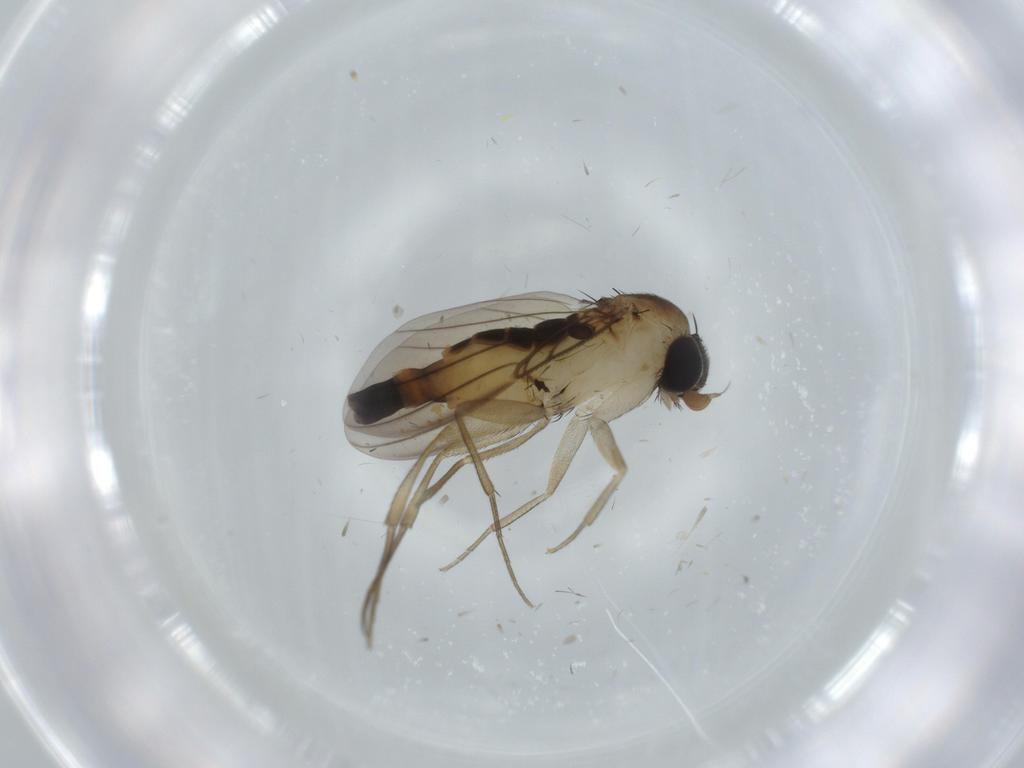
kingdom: Animalia
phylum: Arthropoda
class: Insecta
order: Diptera
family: Phoridae
